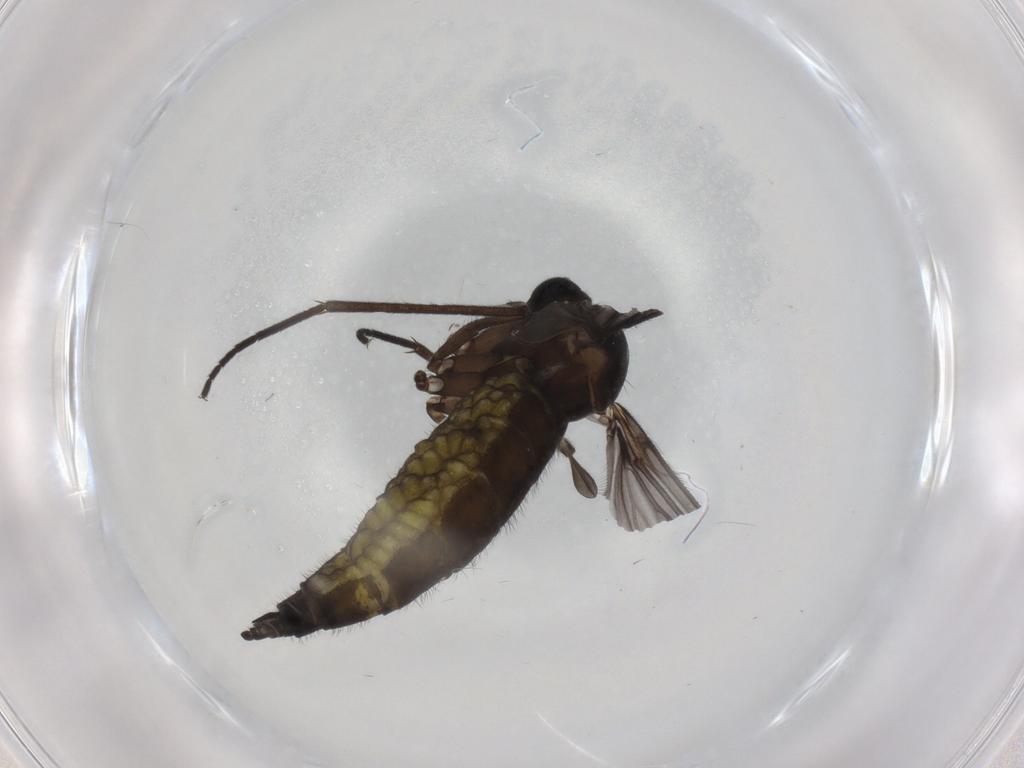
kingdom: Animalia
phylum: Arthropoda
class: Insecta
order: Diptera
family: Sciaridae
